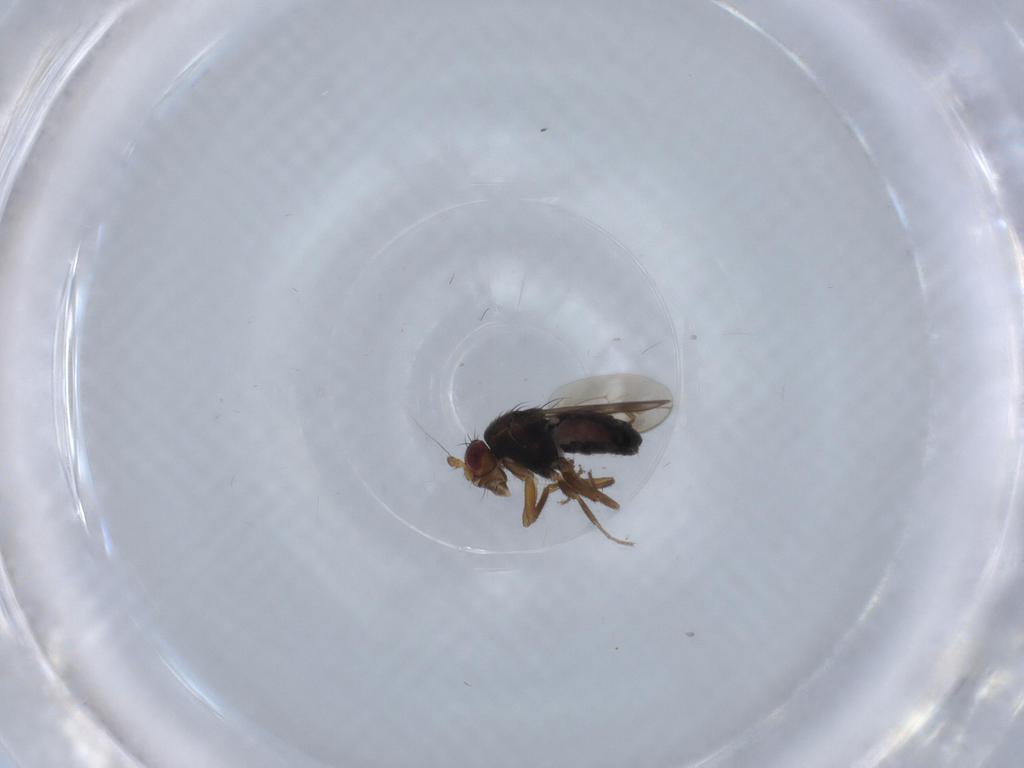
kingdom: Animalia
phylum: Arthropoda
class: Insecta
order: Diptera
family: Sphaeroceridae
